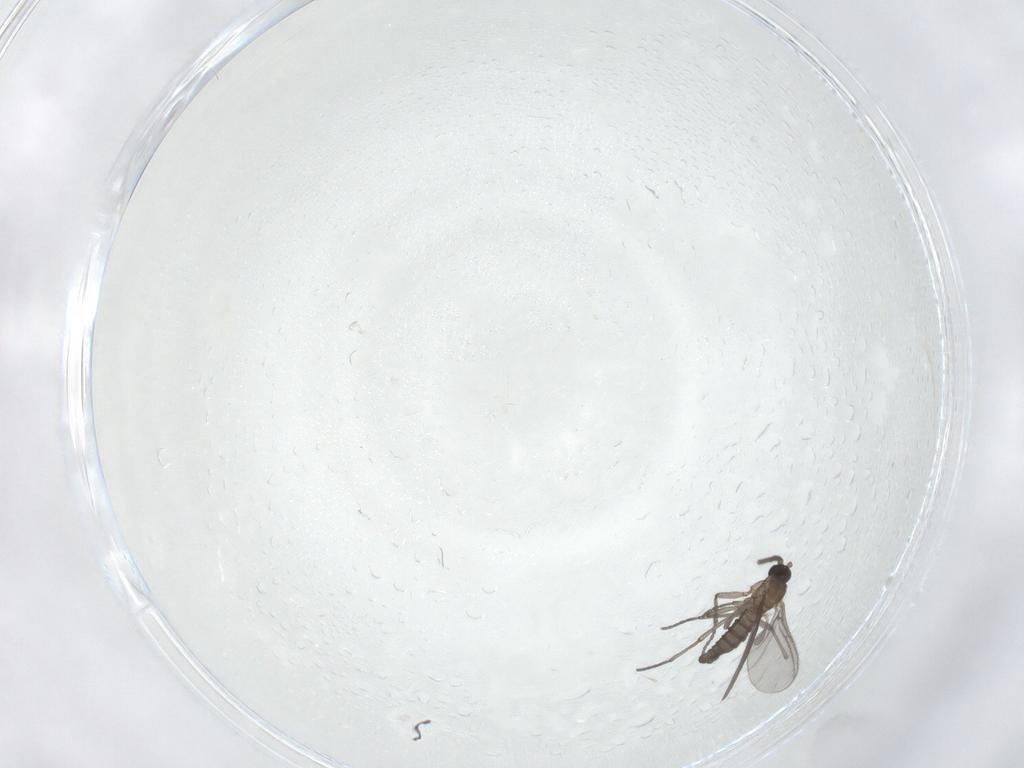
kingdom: Animalia
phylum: Arthropoda
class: Insecta
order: Diptera
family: Sciaridae
